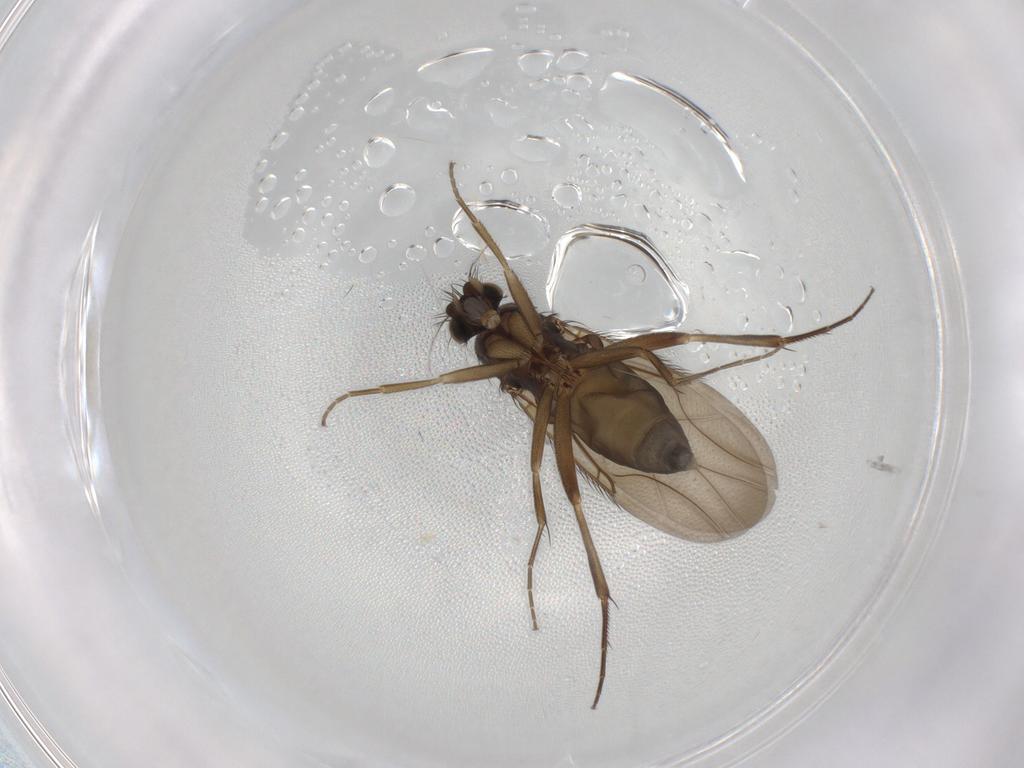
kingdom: Animalia
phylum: Arthropoda
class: Insecta
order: Diptera
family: Phoridae
